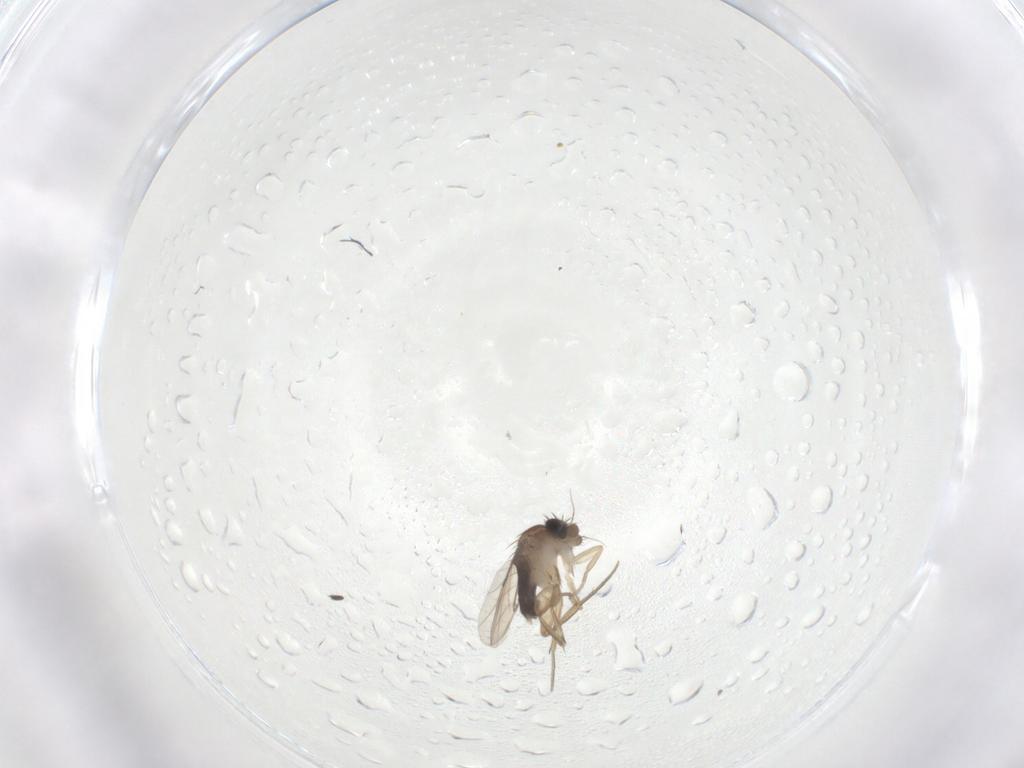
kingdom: Animalia
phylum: Arthropoda
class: Insecta
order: Diptera
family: Phoridae
